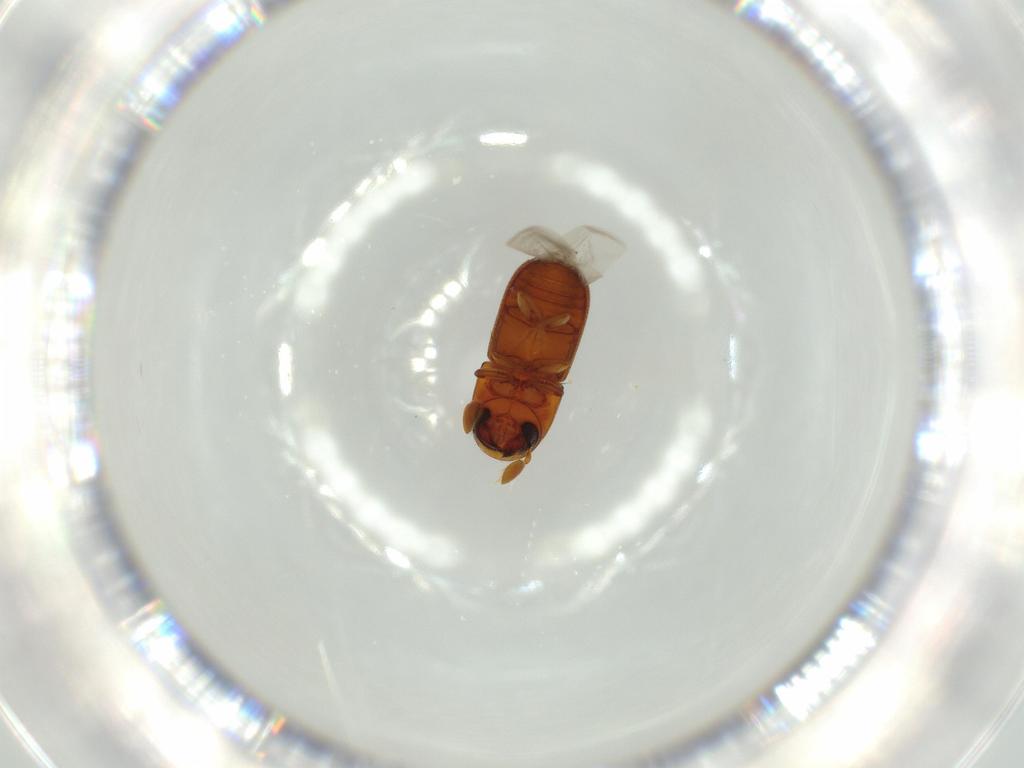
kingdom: Animalia
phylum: Arthropoda
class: Insecta
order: Coleoptera
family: Curculionidae
